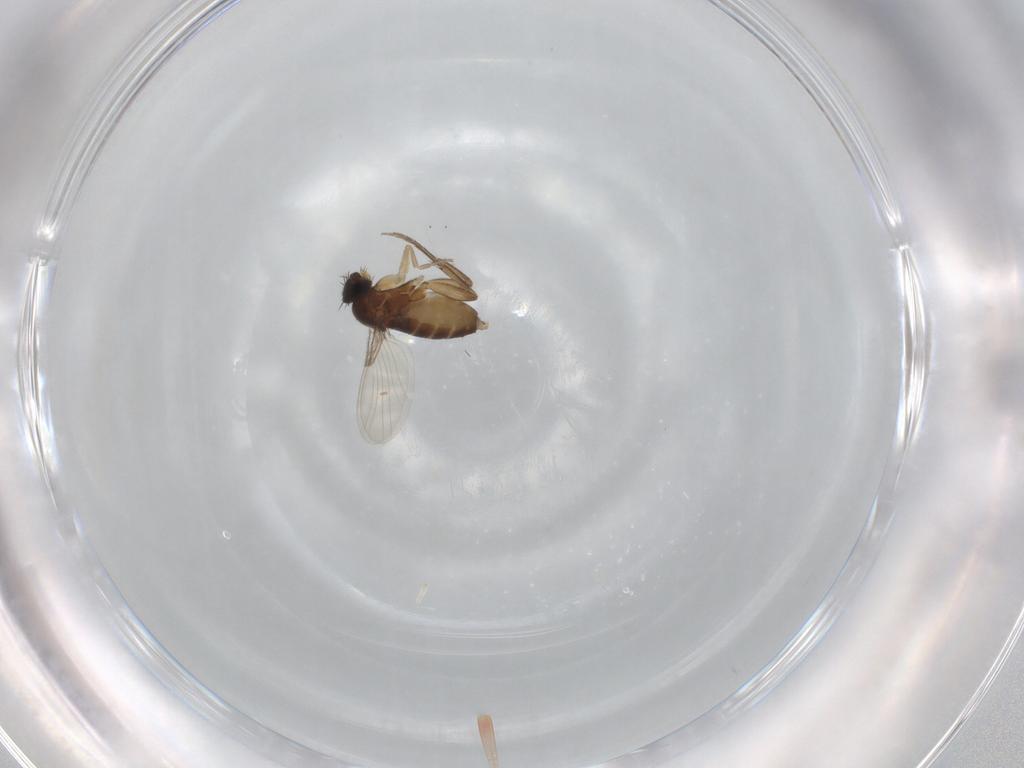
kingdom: Animalia
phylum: Arthropoda
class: Insecta
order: Diptera
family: Phoridae
